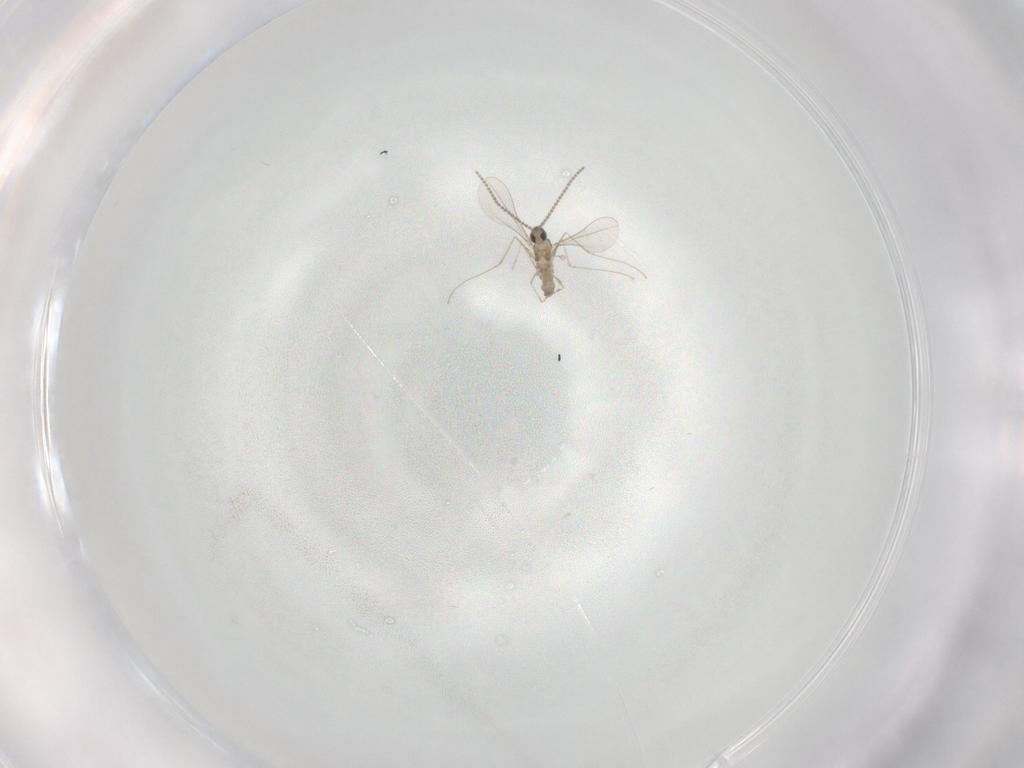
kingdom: Animalia
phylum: Arthropoda
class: Insecta
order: Diptera
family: Cecidomyiidae
